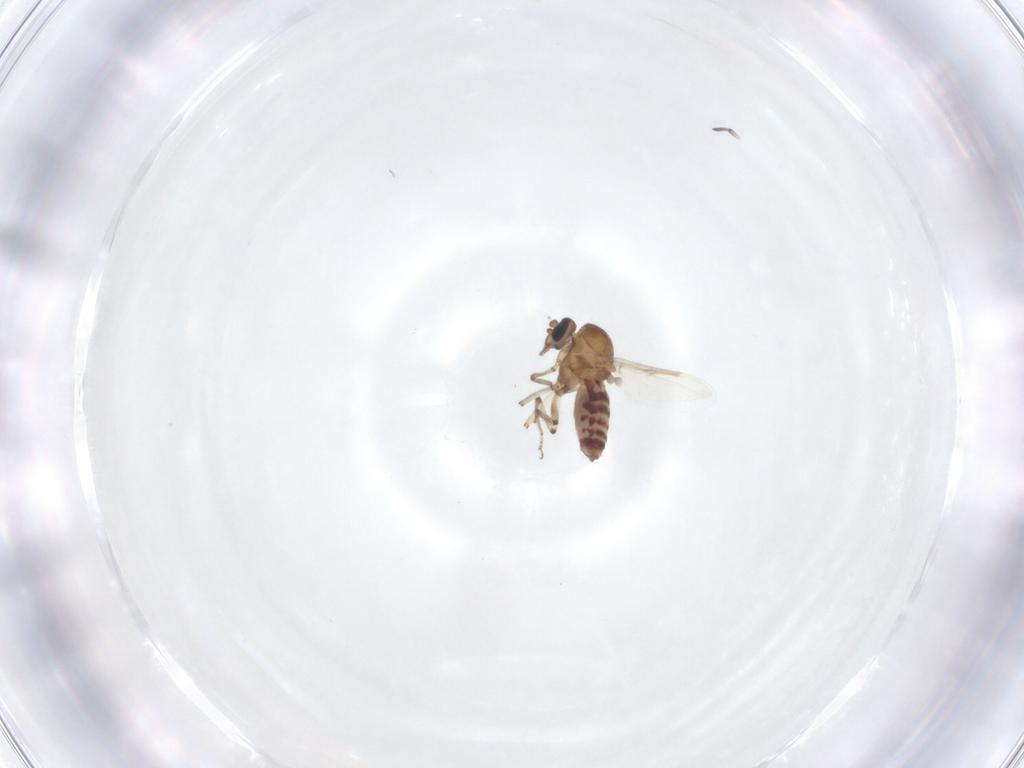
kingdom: Animalia
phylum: Arthropoda
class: Insecta
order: Diptera
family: Ceratopogonidae
